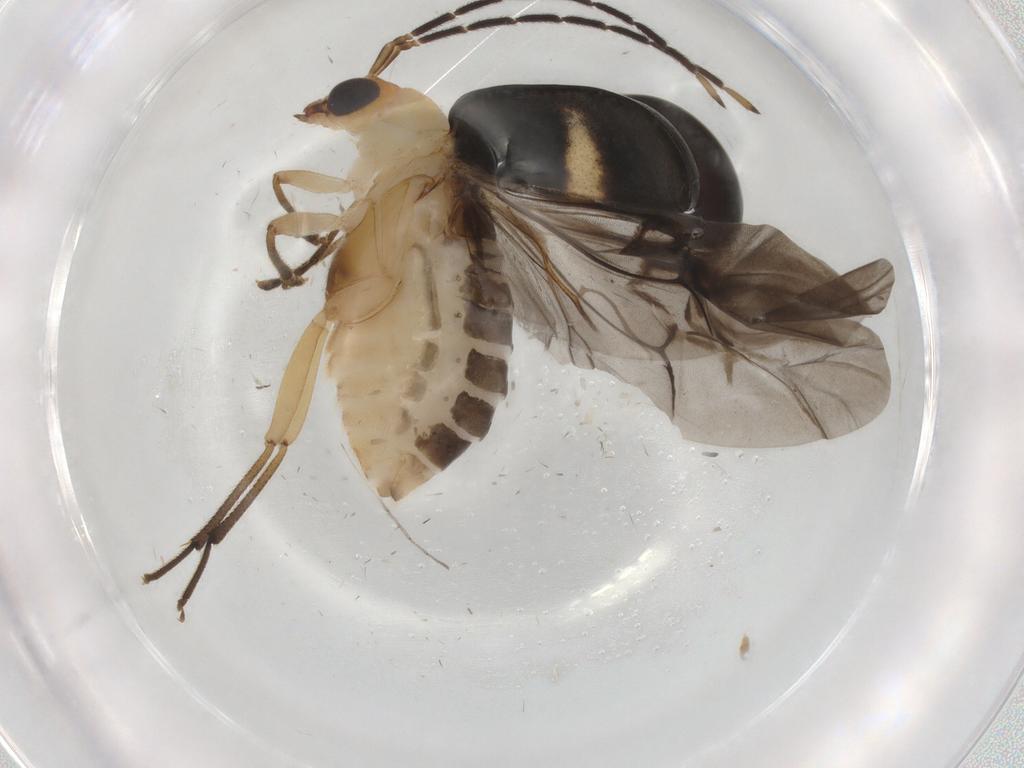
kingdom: Animalia
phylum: Arthropoda
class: Insecta
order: Coleoptera
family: Chrysomelidae
